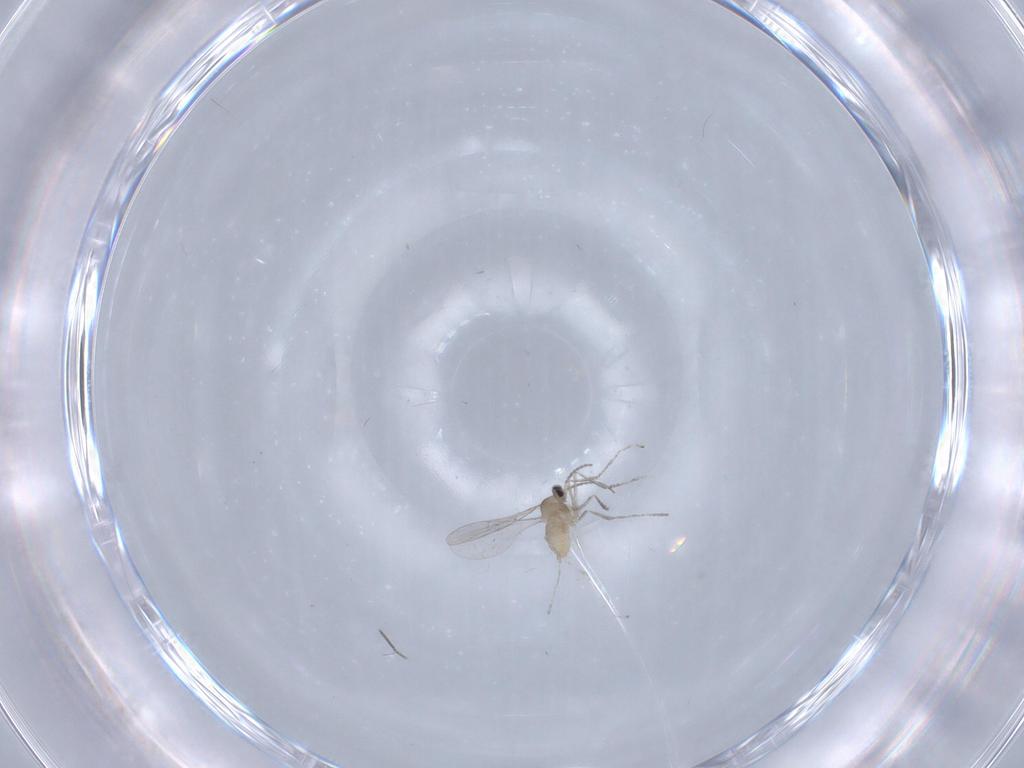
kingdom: Animalia
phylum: Arthropoda
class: Insecta
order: Diptera
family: Cecidomyiidae
